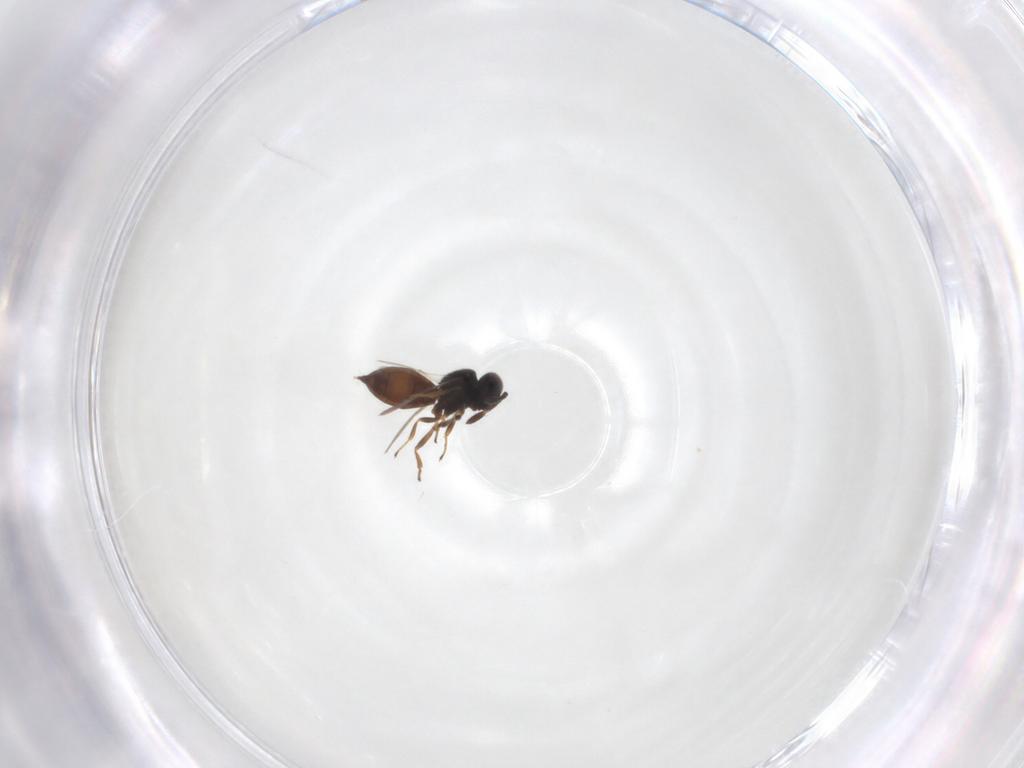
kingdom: Animalia
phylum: Arthropoda
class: Insecta
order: Hymenoptera
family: Scelionidae
